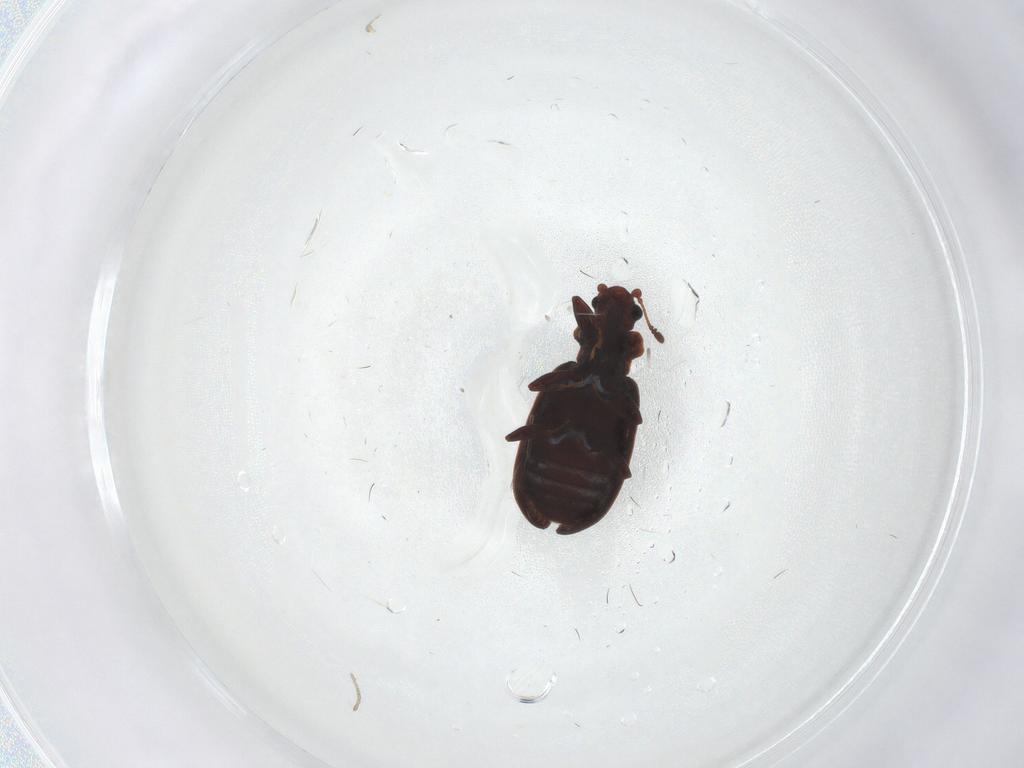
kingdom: Animalia
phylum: Arthropoda
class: Insecta
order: Coleoptera
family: Latridiidae
